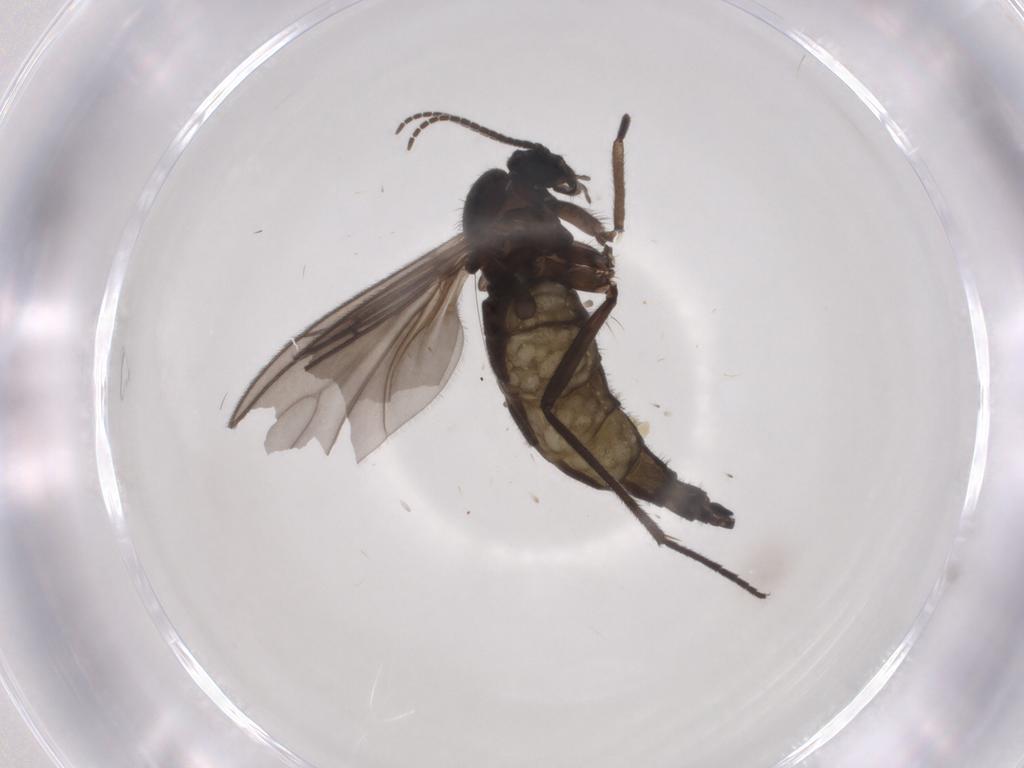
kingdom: Animalia
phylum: Arthropoda
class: Insecta
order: Diptera
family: Sciaridae
